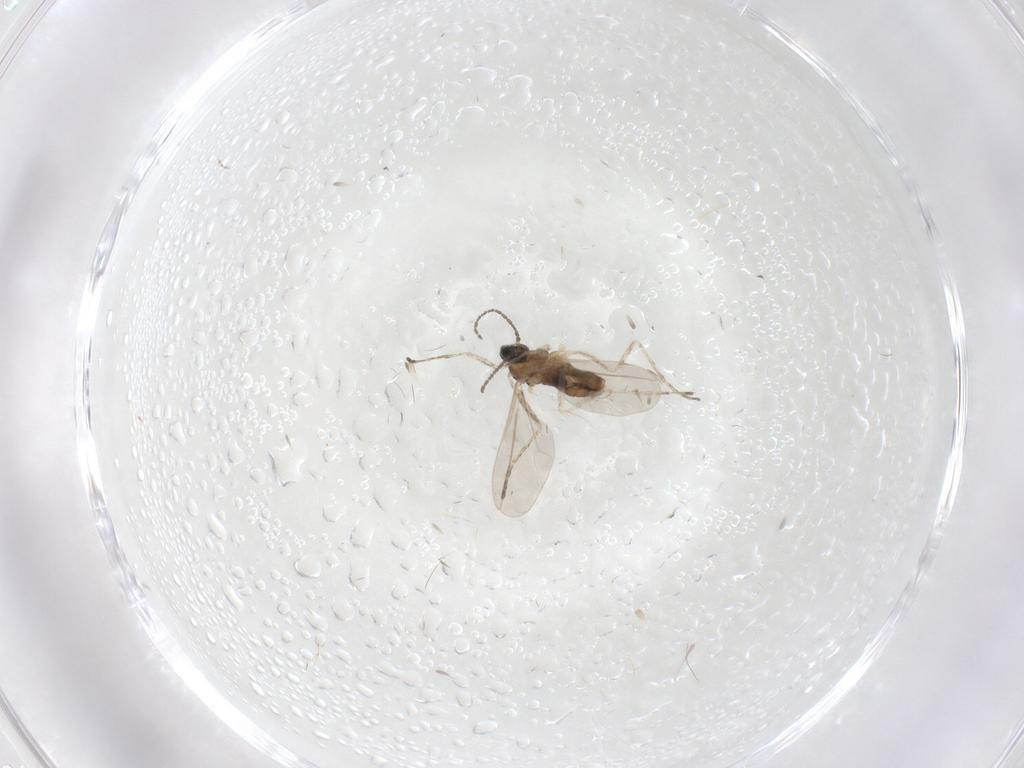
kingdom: Animalia
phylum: Arthropoda
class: Insecta
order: Diptera
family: Cecidomyiidae
